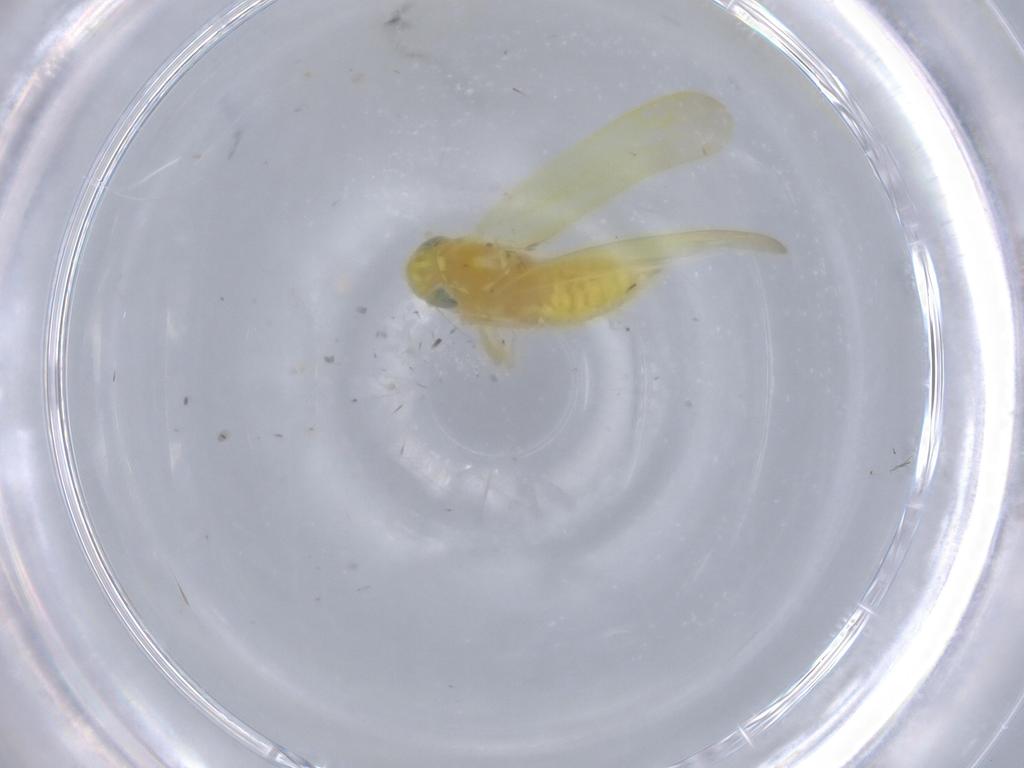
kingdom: Animalia
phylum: Arthropoda
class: Insecta
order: Hemiptera
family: Cicadellidae
